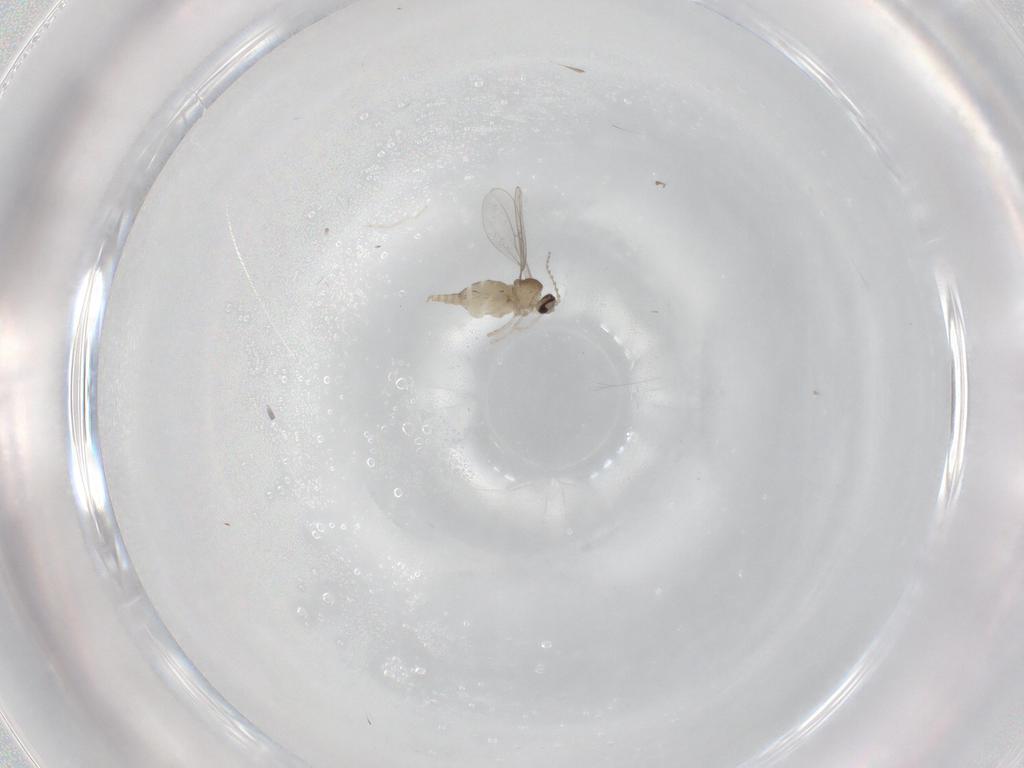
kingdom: Animalia
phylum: Arthropoda
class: Insecta
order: Diptera
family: Cecidomyiidae
